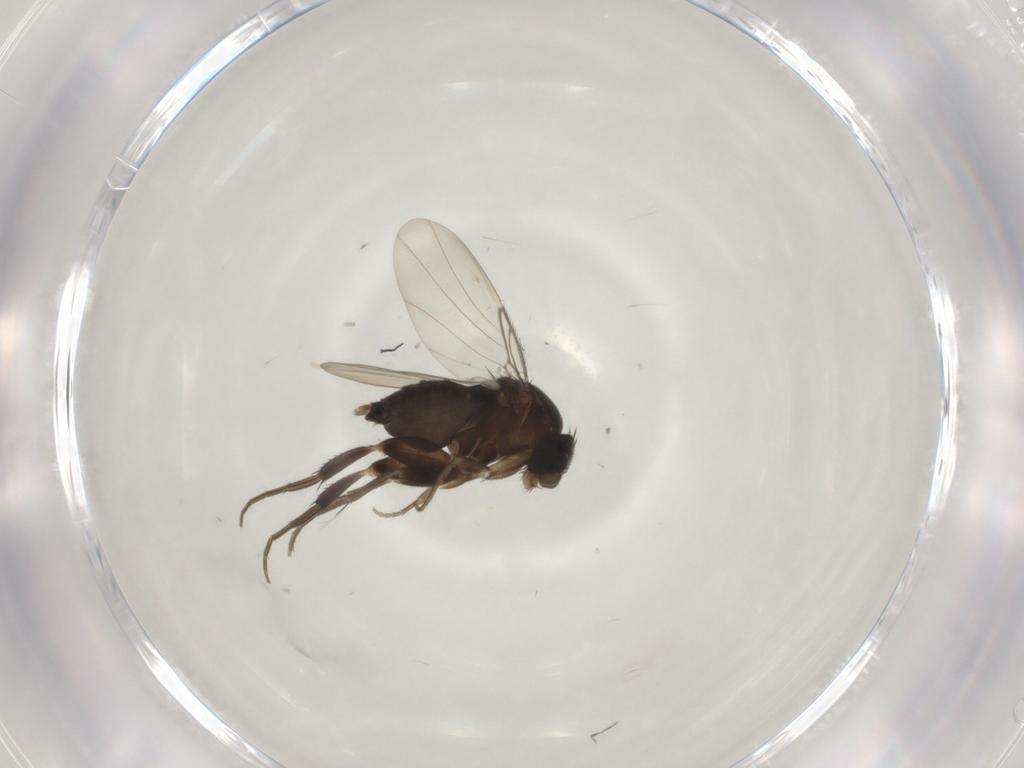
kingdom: Animalia
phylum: Arthropoda
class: Insecta
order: Diptera
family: Phoridae
